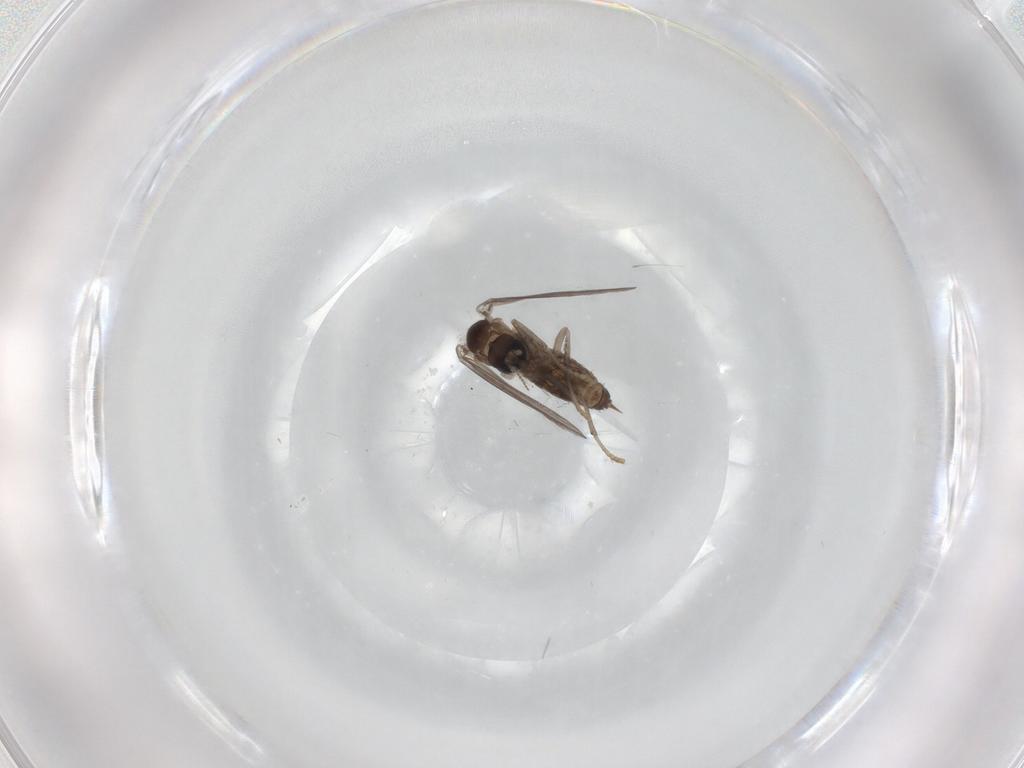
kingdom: Animalia
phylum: Arthropoda
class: Insecta
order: Diptera
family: Psychodidae
